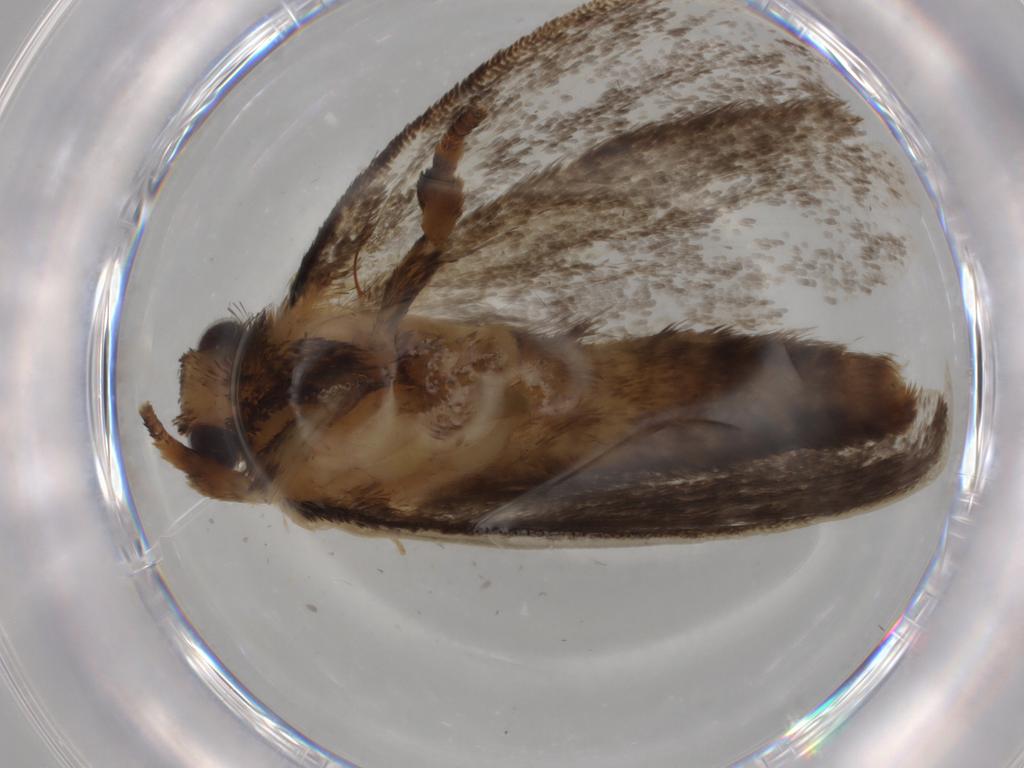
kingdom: Animalia
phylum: Arthropoda
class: Insecta
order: Lepidoptera
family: Tineidae
